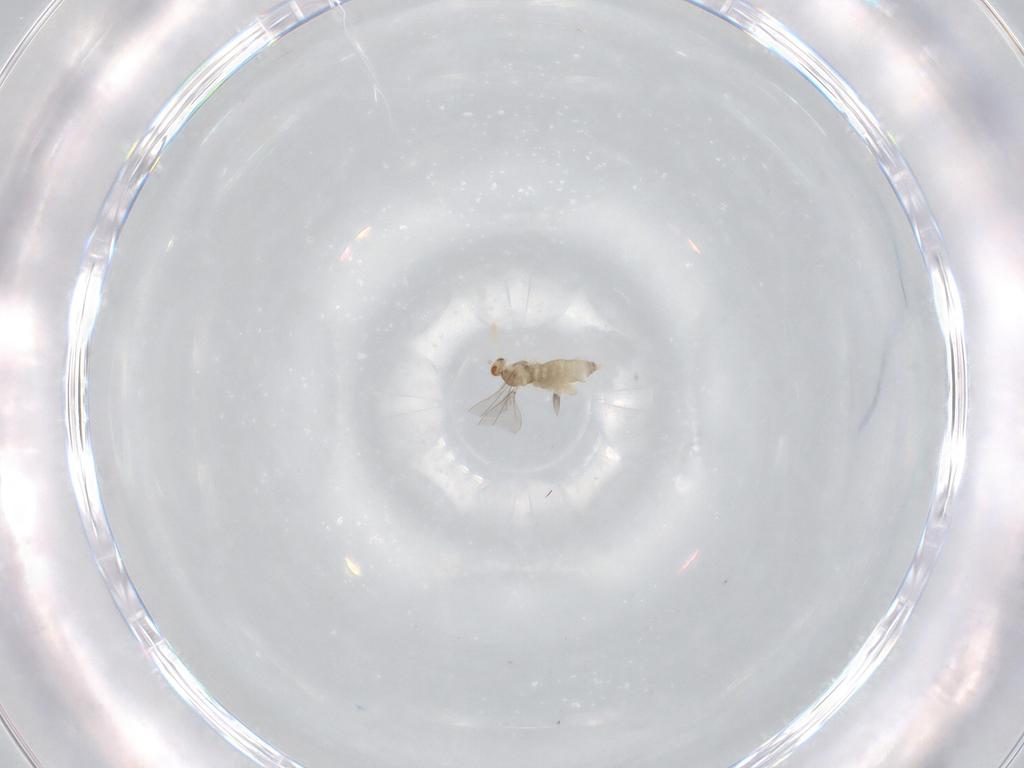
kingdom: Animalia
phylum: Arthropoda
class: Insecta
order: Diptera
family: Cecidomyiidae
